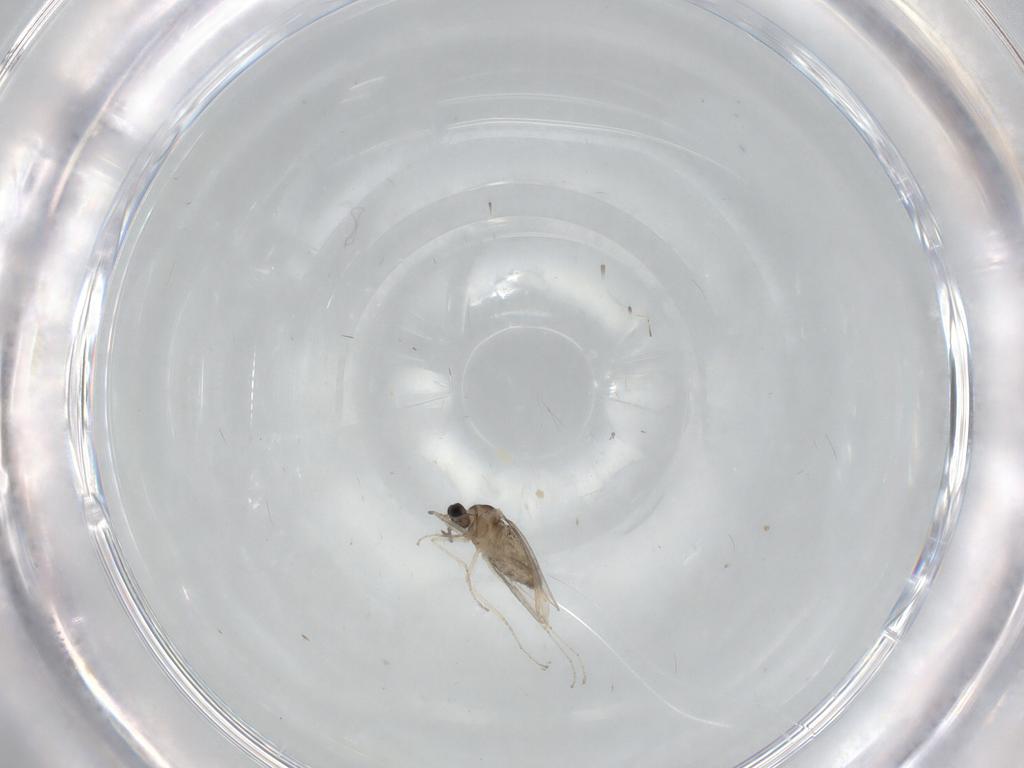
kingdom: Animalia
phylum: Arthropoda
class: Insecta
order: Diptera
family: Cecidomyiidae
